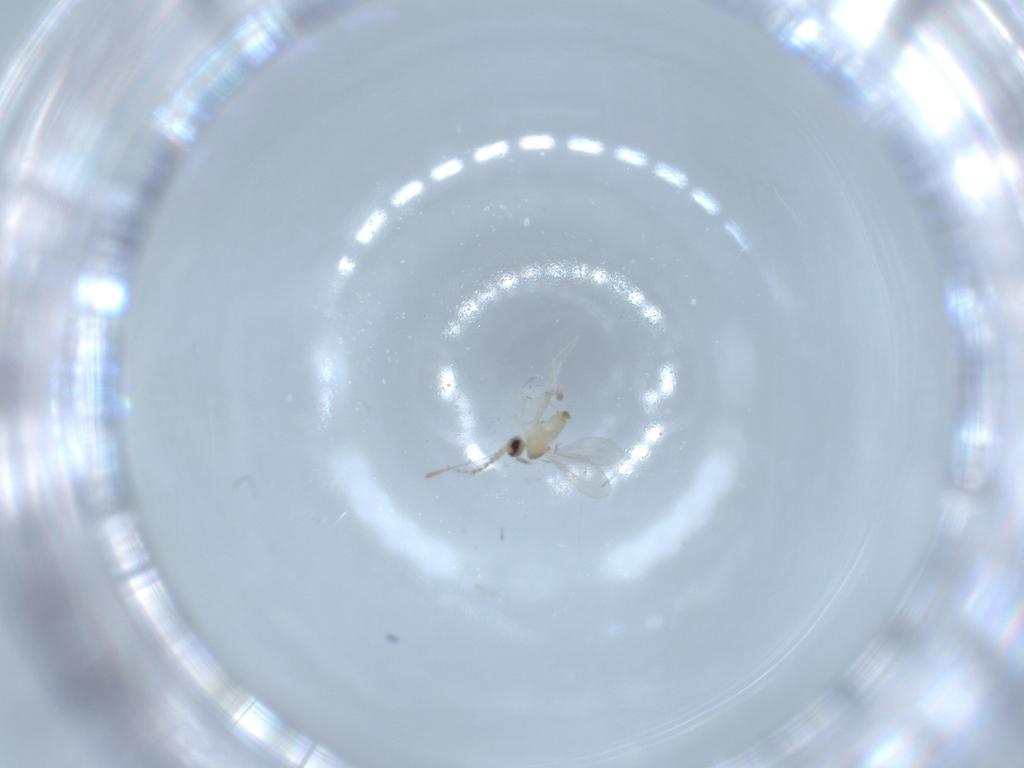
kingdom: Animalia
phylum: Arthropoda
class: Insecta
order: Diptera
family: Cecidomyiidae
